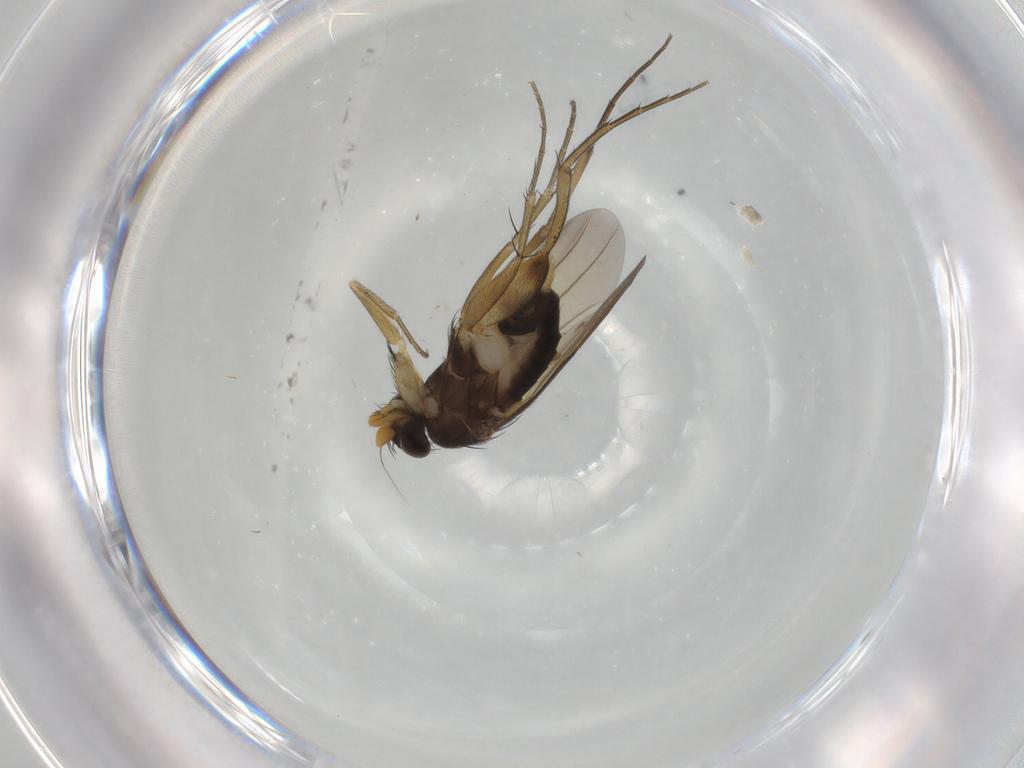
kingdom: Animalia
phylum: Arthropoda
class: Insecta
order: Diptera
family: Phoridae
